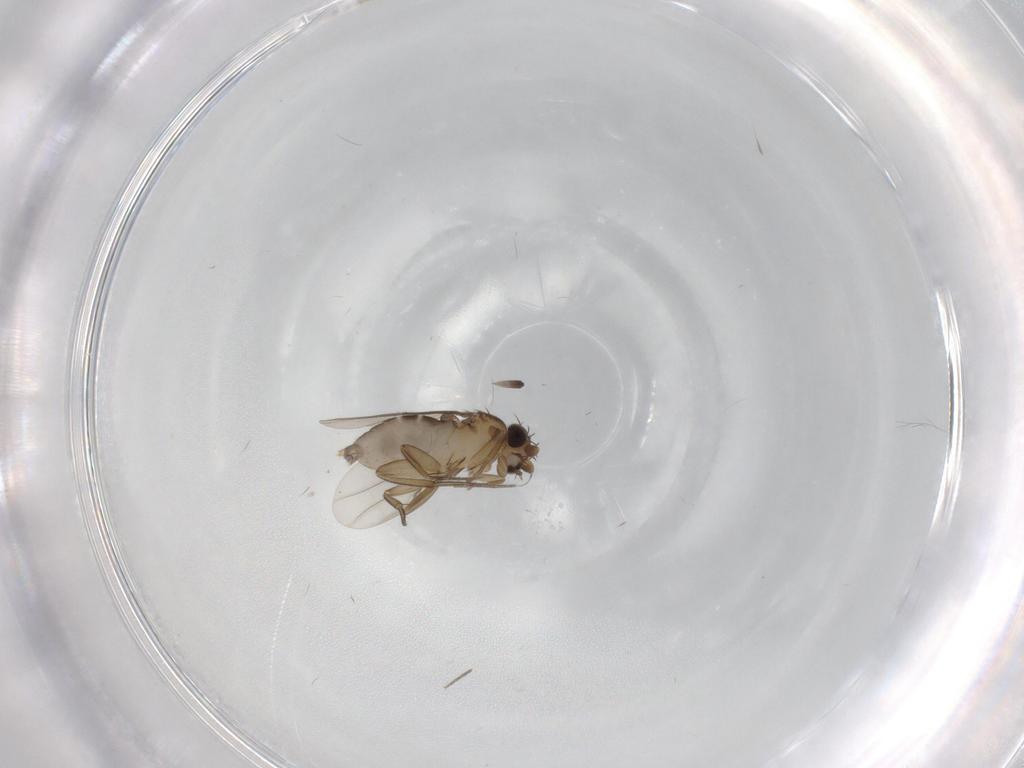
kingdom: Animalia
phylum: Arthropoda
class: Insecta
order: Diptera
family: Phoridae
